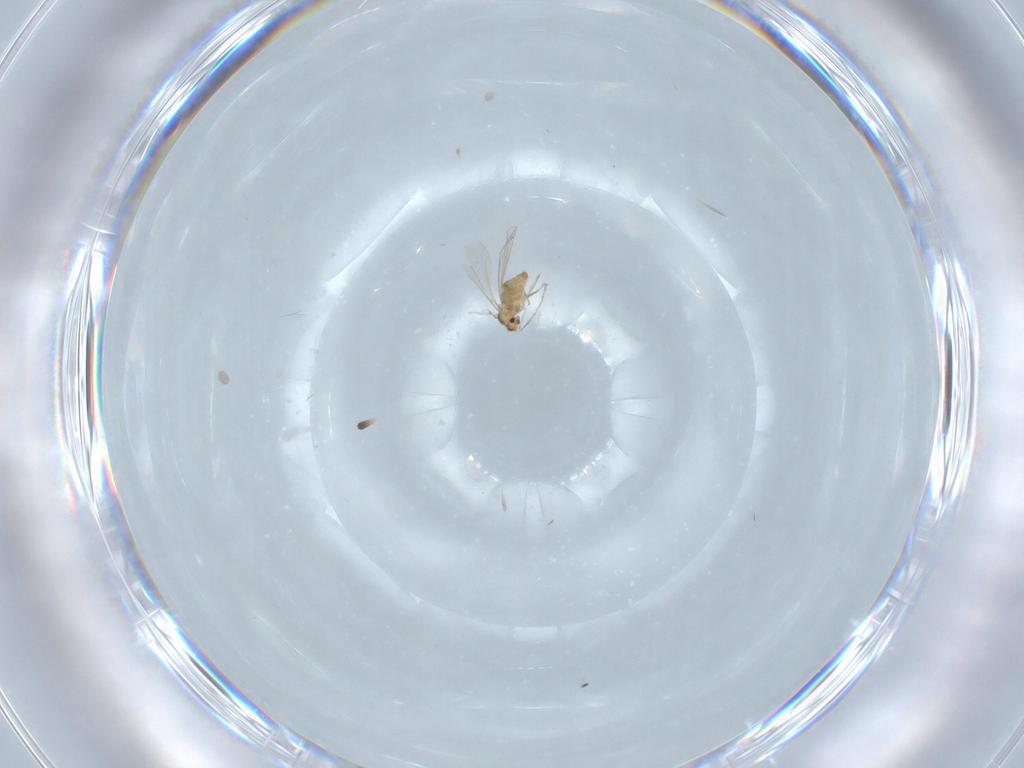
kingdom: Animalia
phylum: Arthropoda
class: Insecta
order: Diptera
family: Cecidomyiidae
